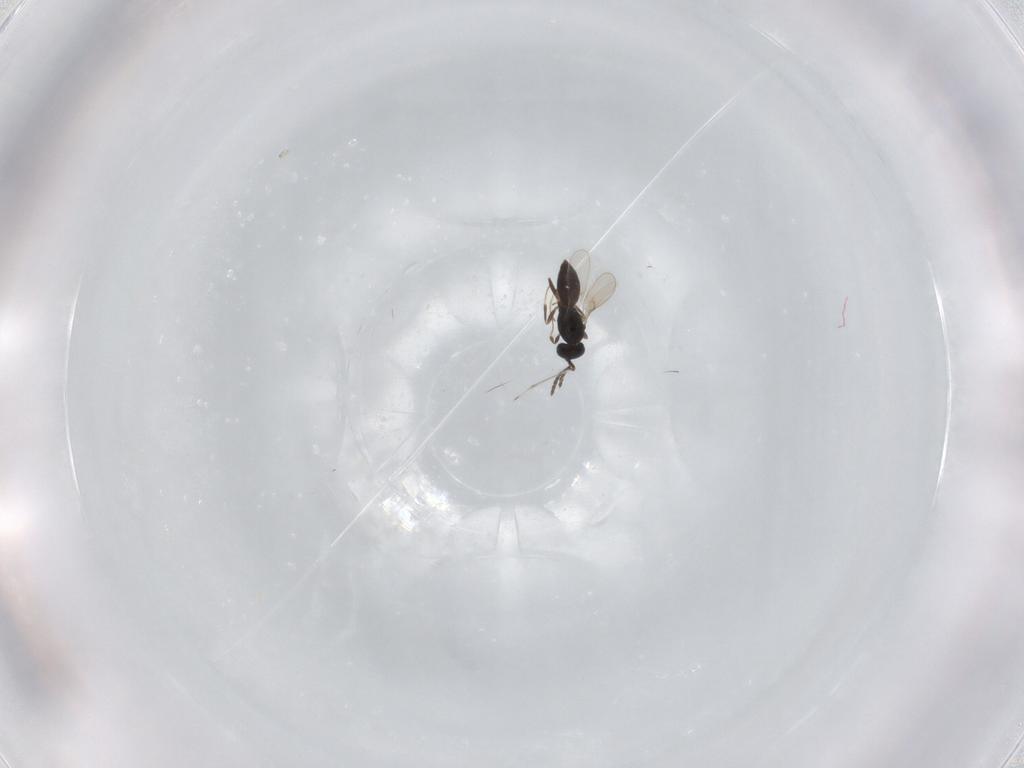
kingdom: Animalia
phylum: Arthropoda
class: Insecta
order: Hymenoptera
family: Scelionidae
